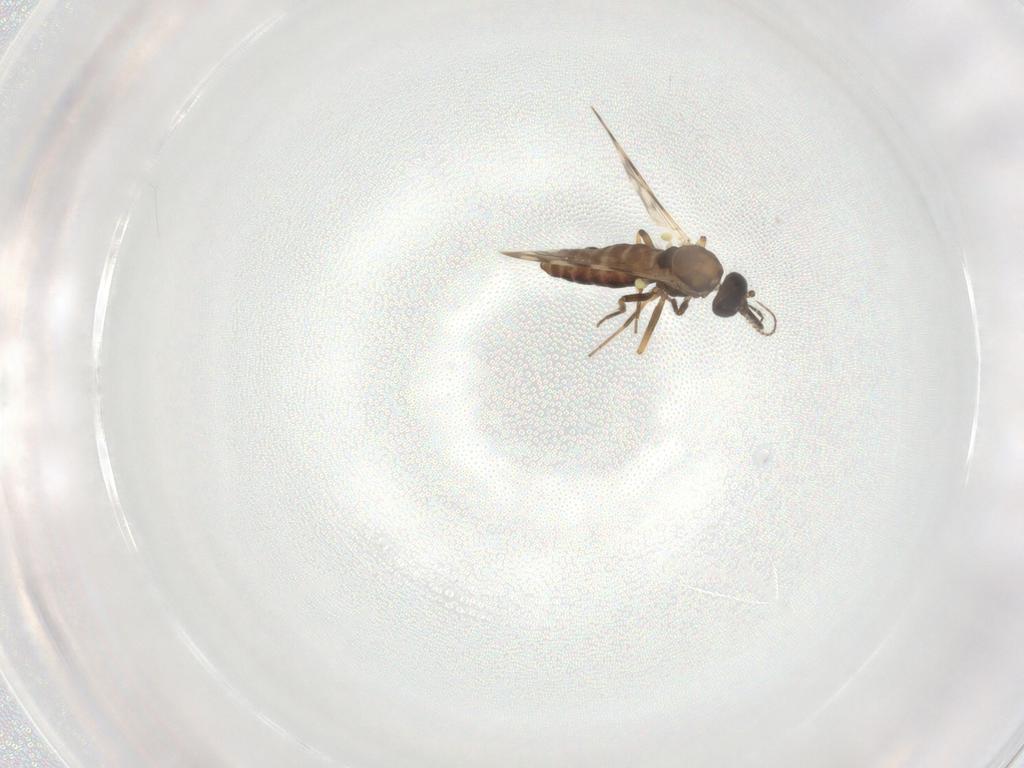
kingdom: Animalia
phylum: Arthropoda
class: Insecta
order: Diptera
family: Ceratopogonidae
